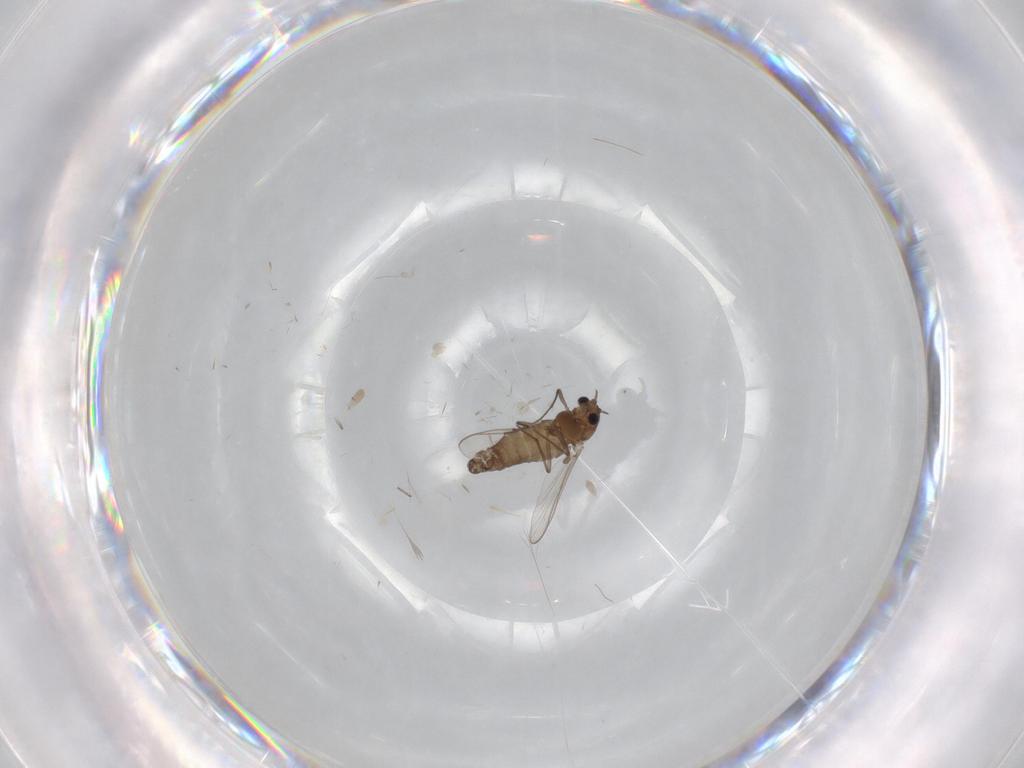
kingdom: Animalia
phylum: Arthropoda
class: Insecta
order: Diptera
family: Chironomidae
